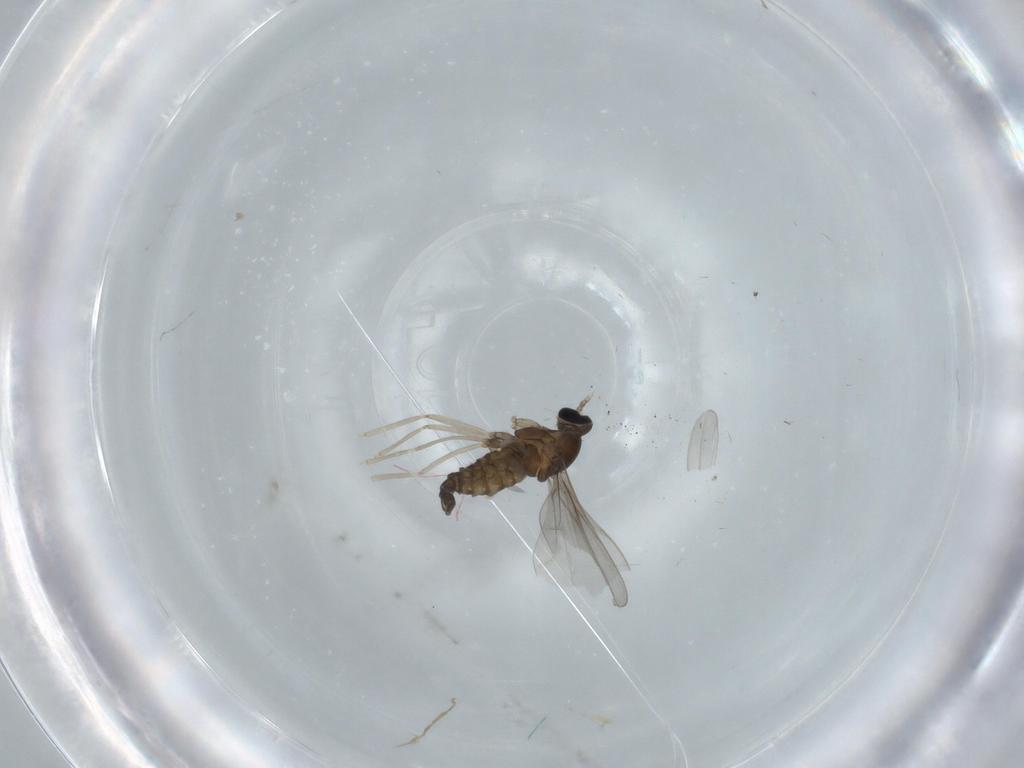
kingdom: Animalia
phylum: Arthropoda
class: Insecta
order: Diptera
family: Cecidomyiidae
